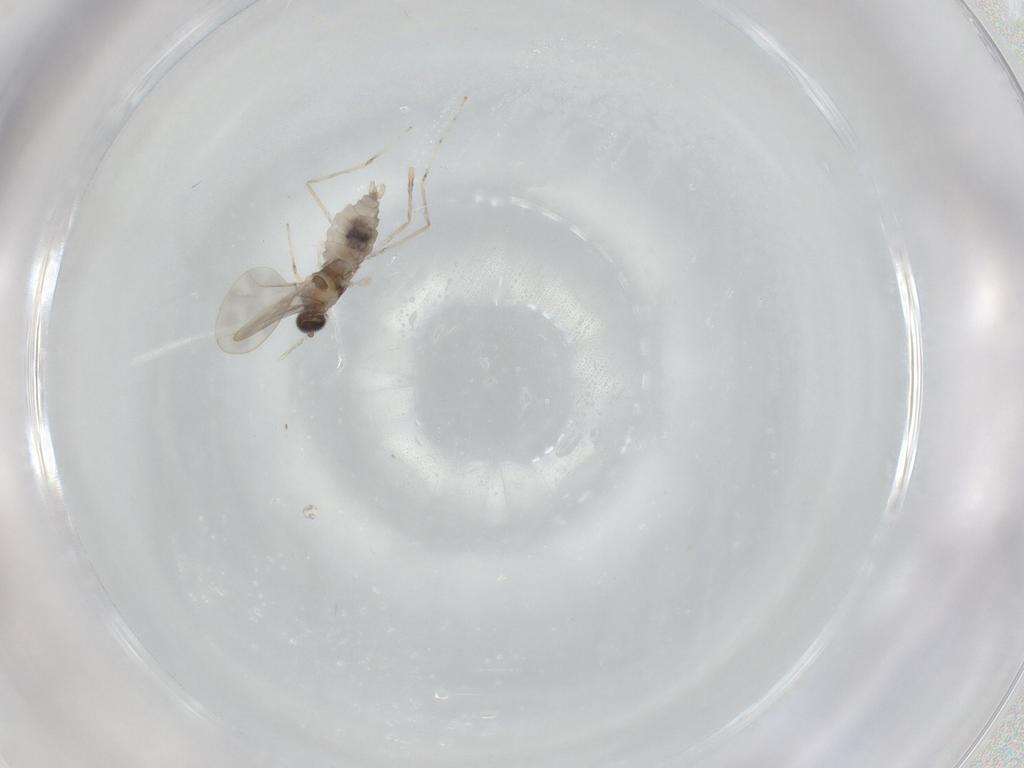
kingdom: Animalia
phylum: Arthropoda
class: Insecta
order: Diptera
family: Cecidomyiidae
